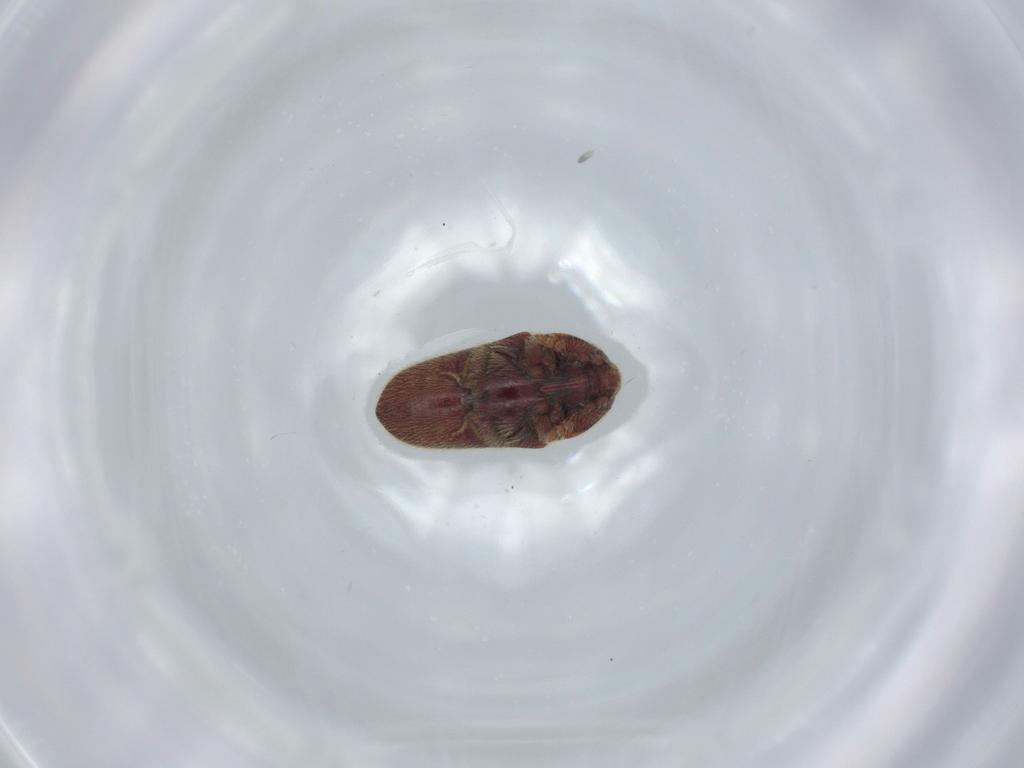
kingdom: Animalia
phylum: Arthropoda
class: Insecta
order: Coleoptera
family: Throscidae
